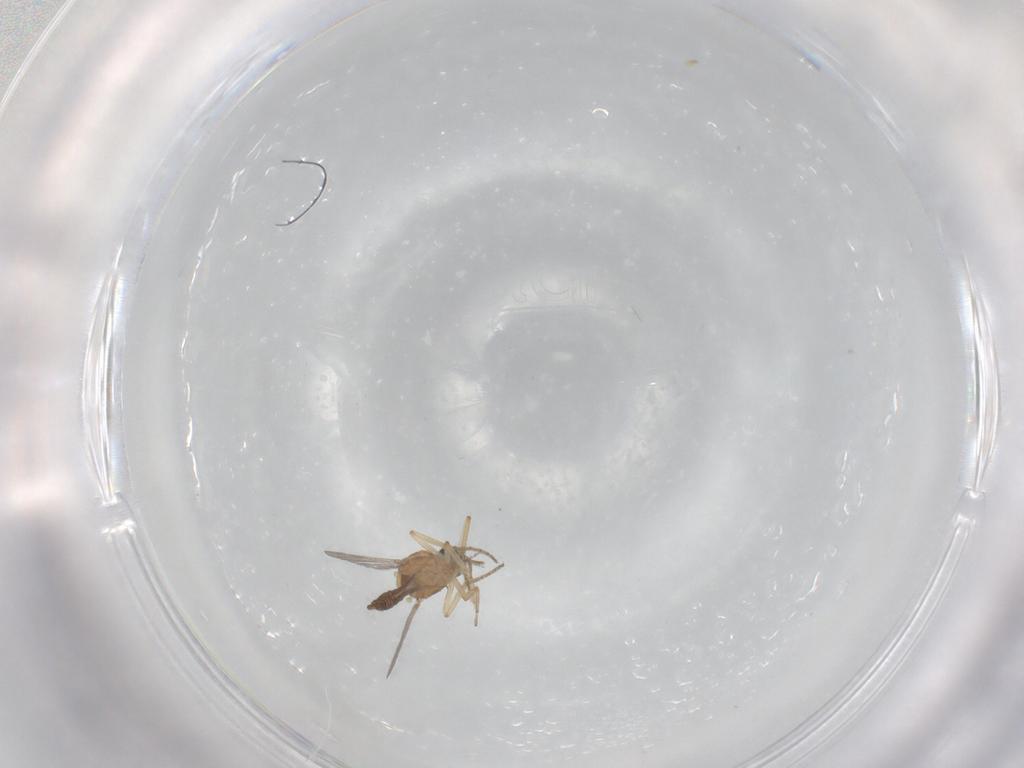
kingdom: Animalia
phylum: Arthropoda
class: Insecta
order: Diptera
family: Ceratopogonidae
